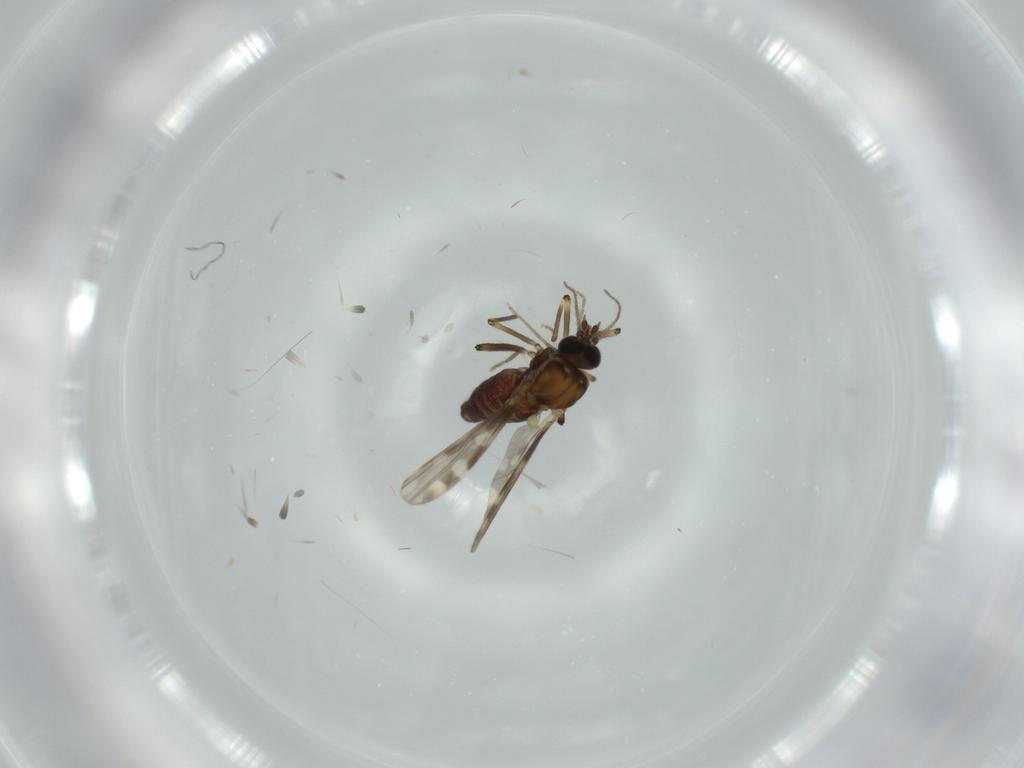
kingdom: Animalia
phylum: Arthropoda
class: Insecta
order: Diptera
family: Ceratopogonidae
